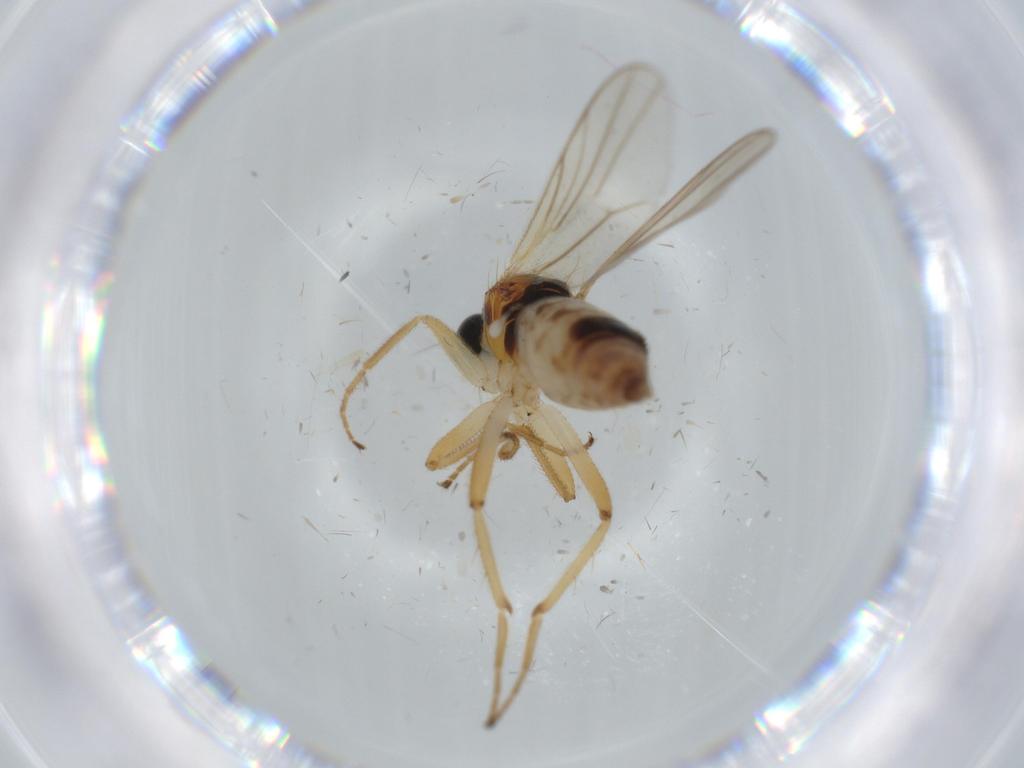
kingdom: Animalia
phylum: Arthropoda
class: Insecta
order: Diptera
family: Hybotidae
